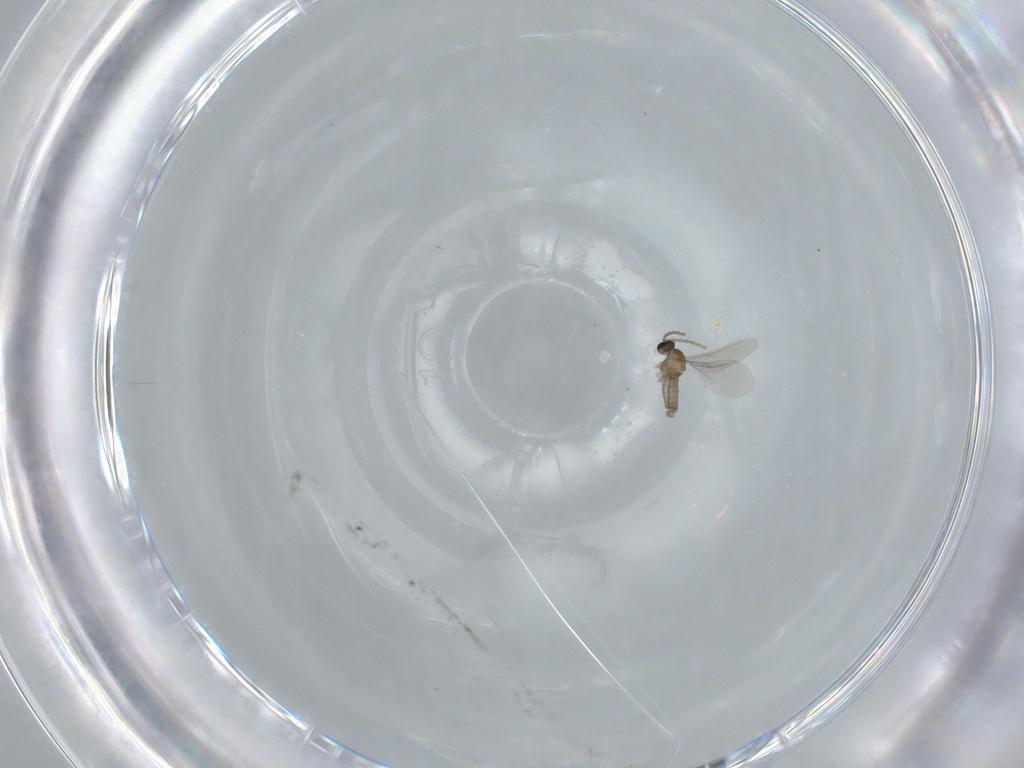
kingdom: Animalia
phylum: Arthropoda
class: Insecta
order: Diptera
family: Cecidomyiidae
